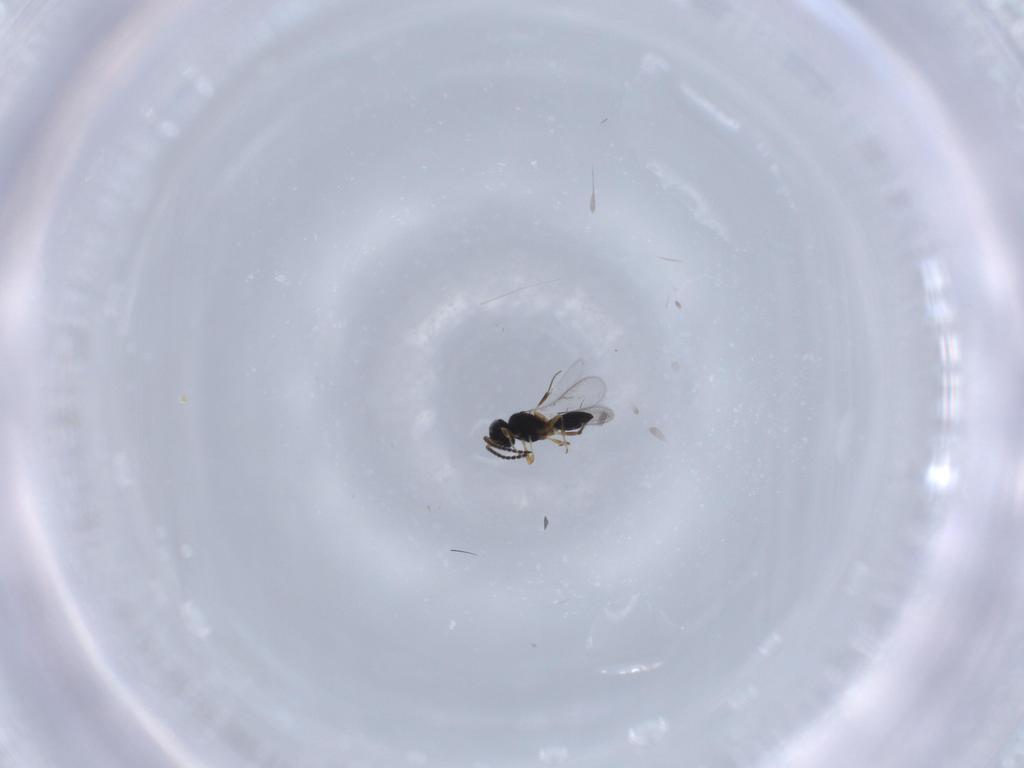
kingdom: Animalia
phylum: Arthropoda
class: Insecta
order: Hymenoptera
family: Scelionidae
